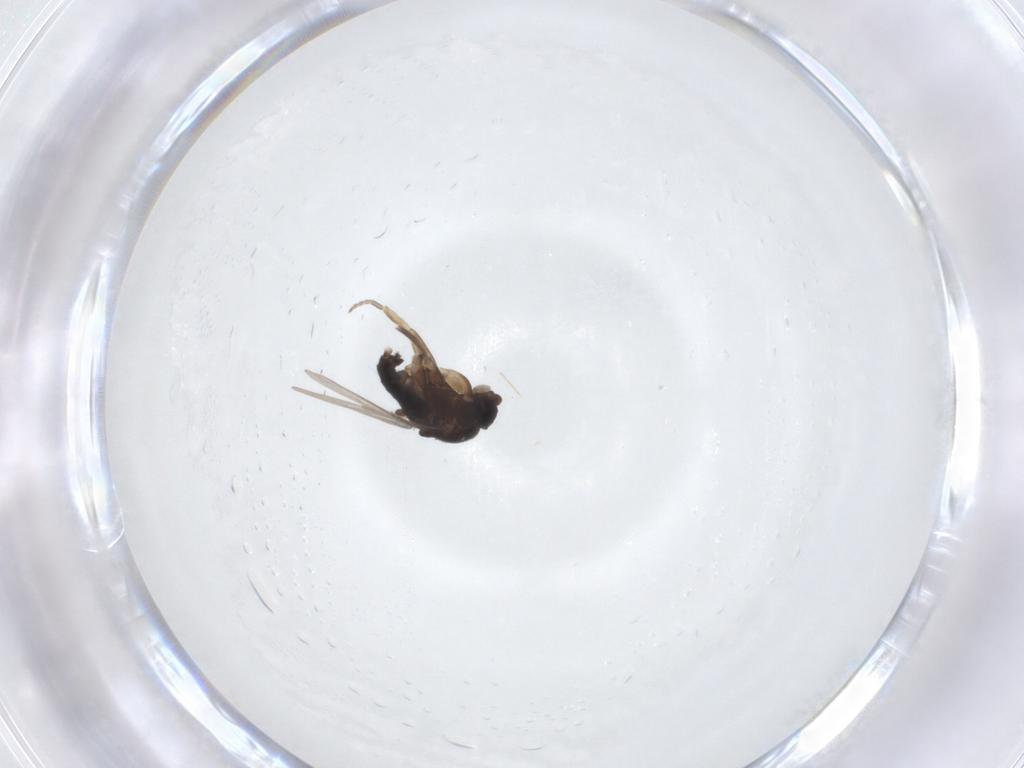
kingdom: Animalia
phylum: Arthropoda
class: Insecta
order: Diptera
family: Phoridae
